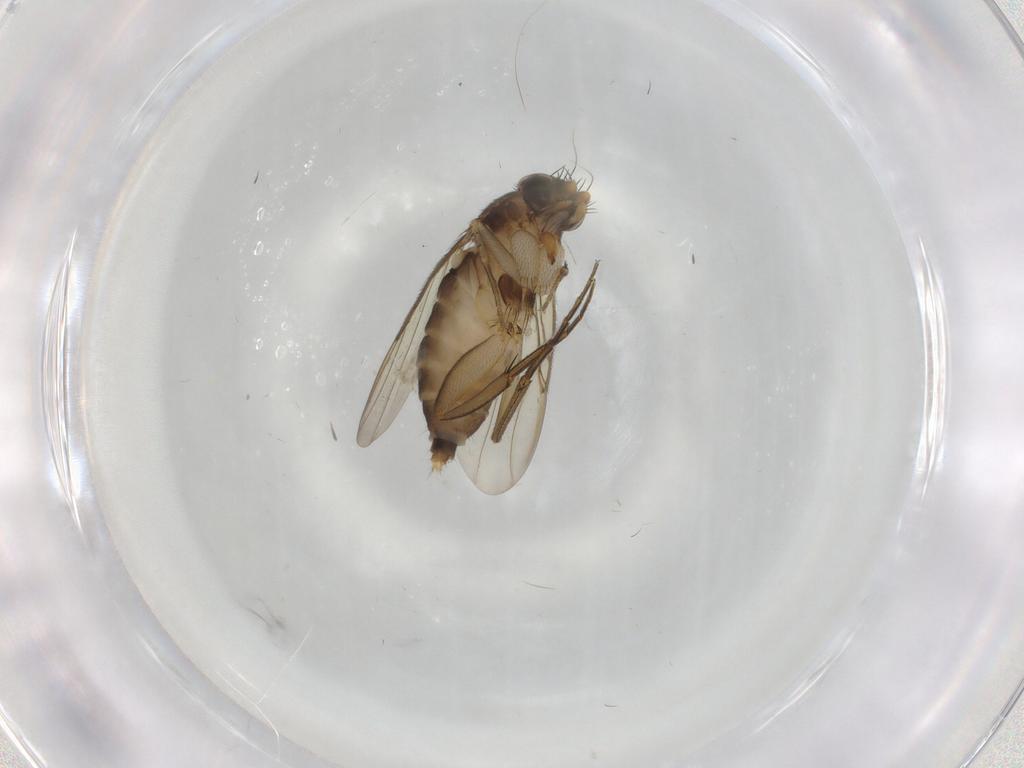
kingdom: Animalia
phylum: Arthropoda
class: Insecta
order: Diptera
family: Phoridae
